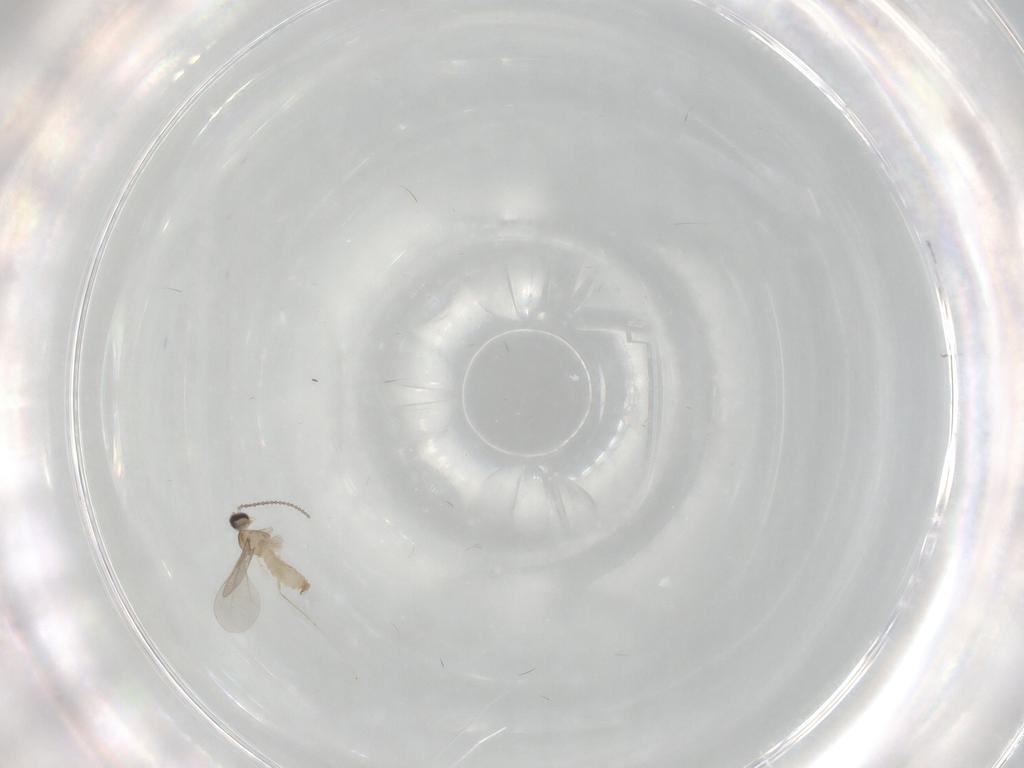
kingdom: Animalia
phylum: Arthropoda
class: Insecta
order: Diptera
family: Cecidomyiidae
